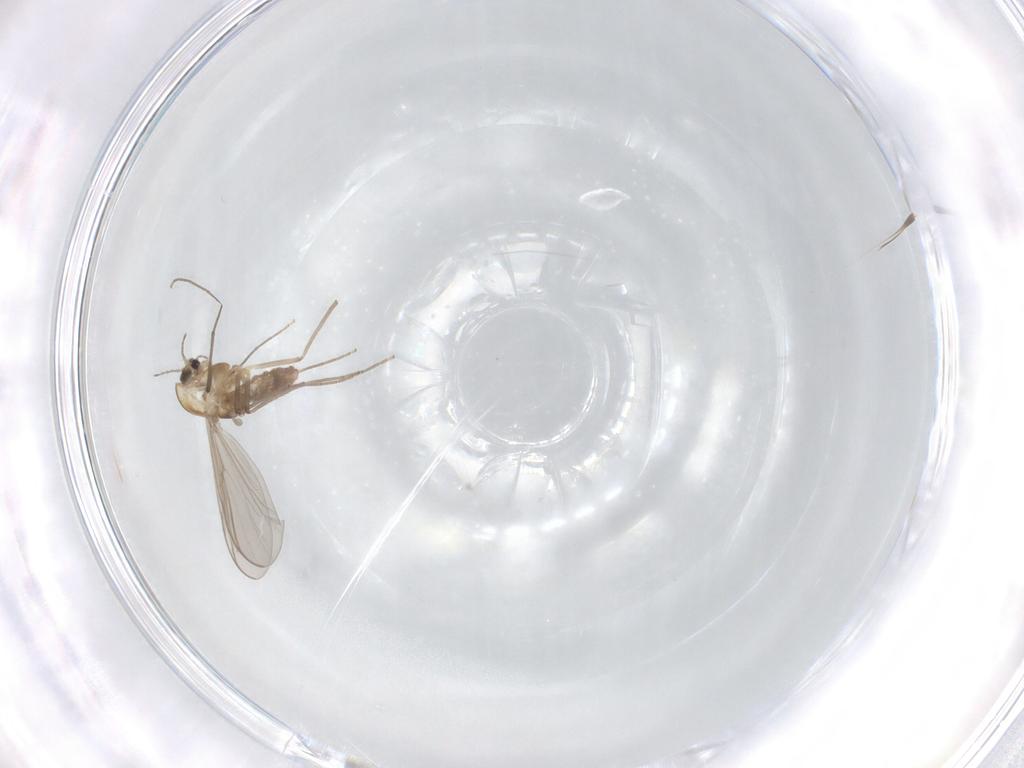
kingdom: Animalia
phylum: Arthropoda
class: Insecta
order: Diptera
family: Chironomidae
